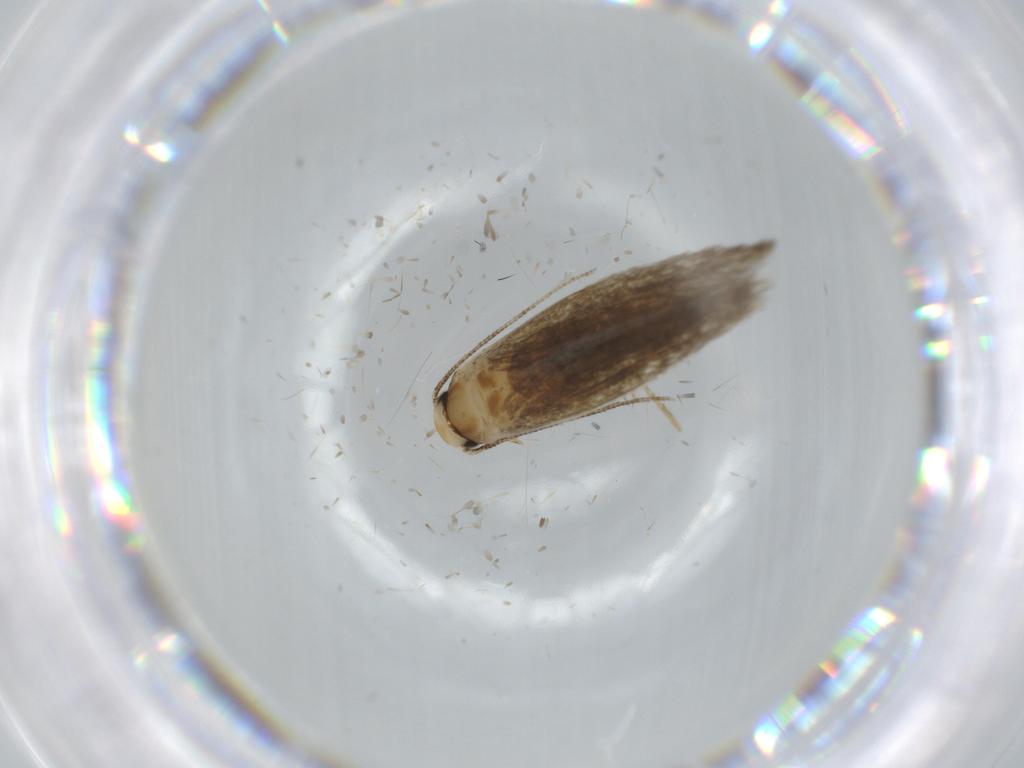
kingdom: Animalia
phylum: Arthropoda
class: Insecta
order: Lepidoptera
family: Tineidae
